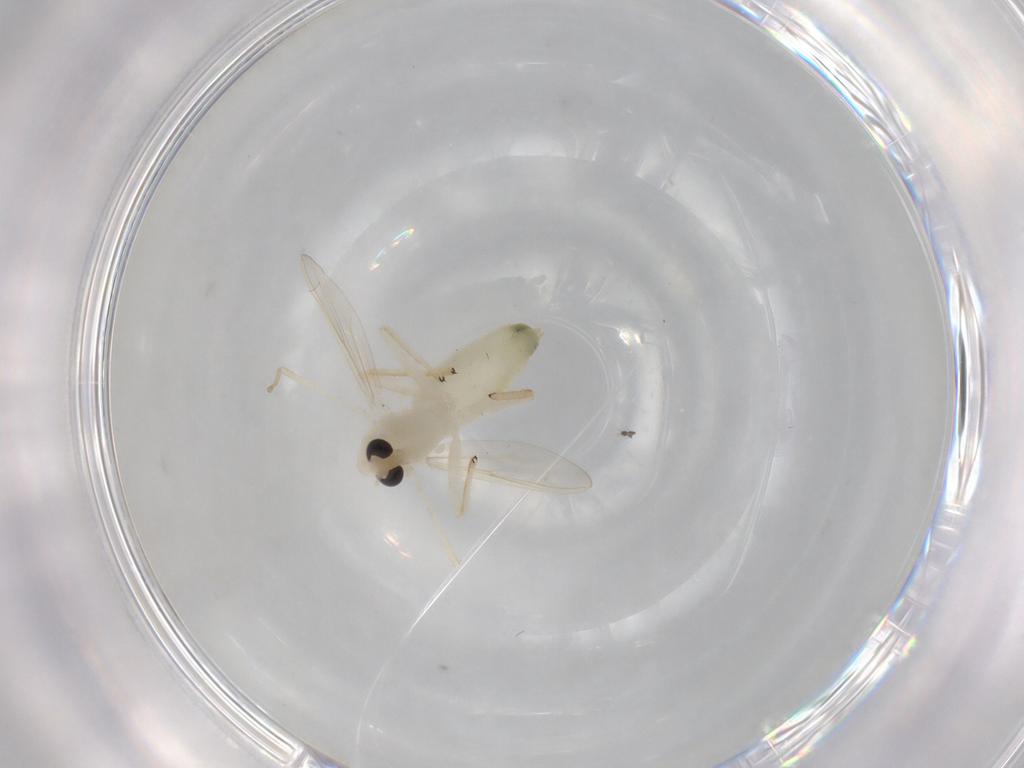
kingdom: Animalia
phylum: Arthropoda
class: Insecta
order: Diptera
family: Chironomidae
